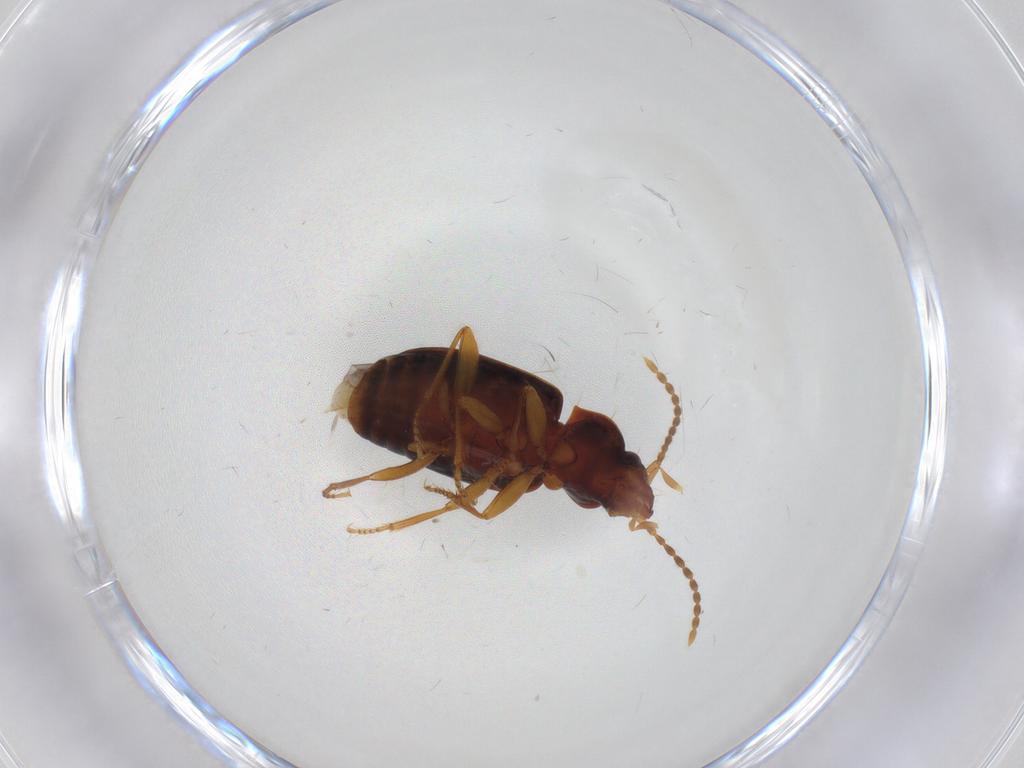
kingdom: Animalia
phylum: Arthropoda
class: Insecta
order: Coleoptera
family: Carabidae
